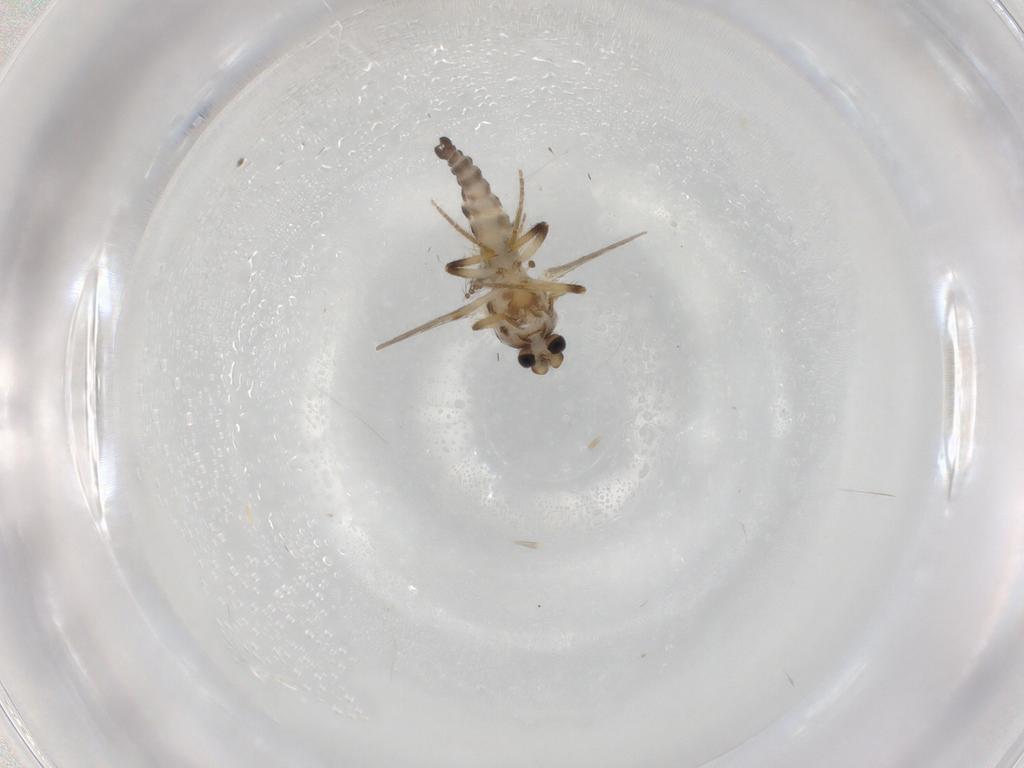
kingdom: Animalia
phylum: Arthropoda
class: Insecta
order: Diptera
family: Ceratopogonidae
